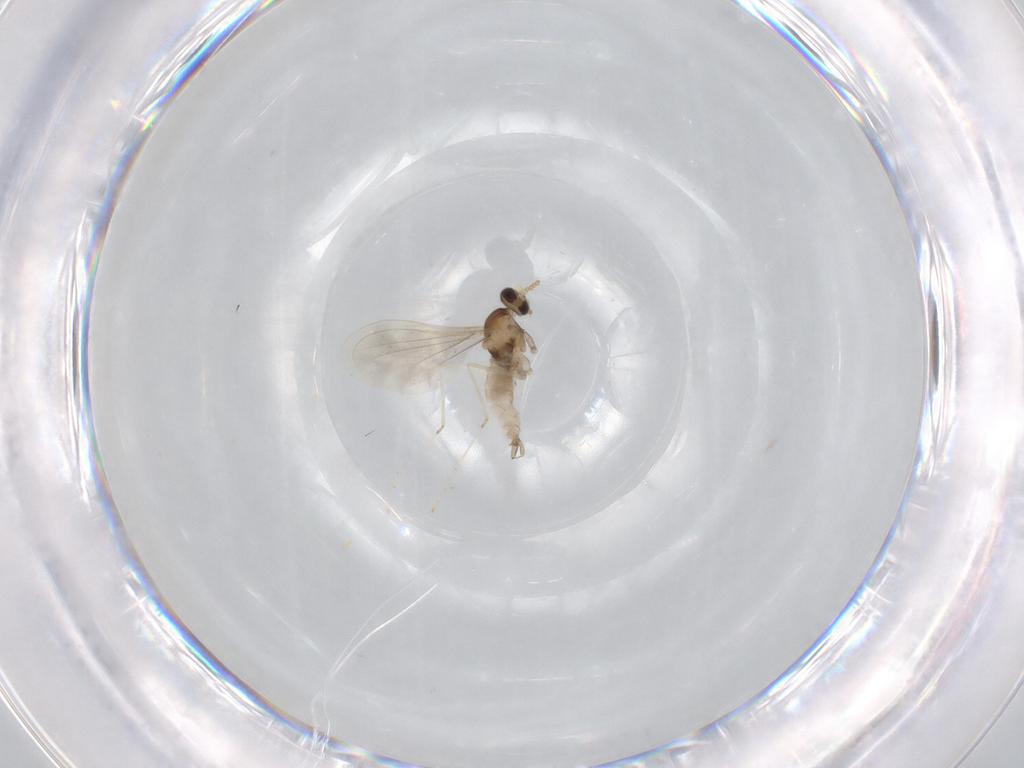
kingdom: Animalia
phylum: Arthropoda
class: Insecta
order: Diptera
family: Cecidomyiidae
